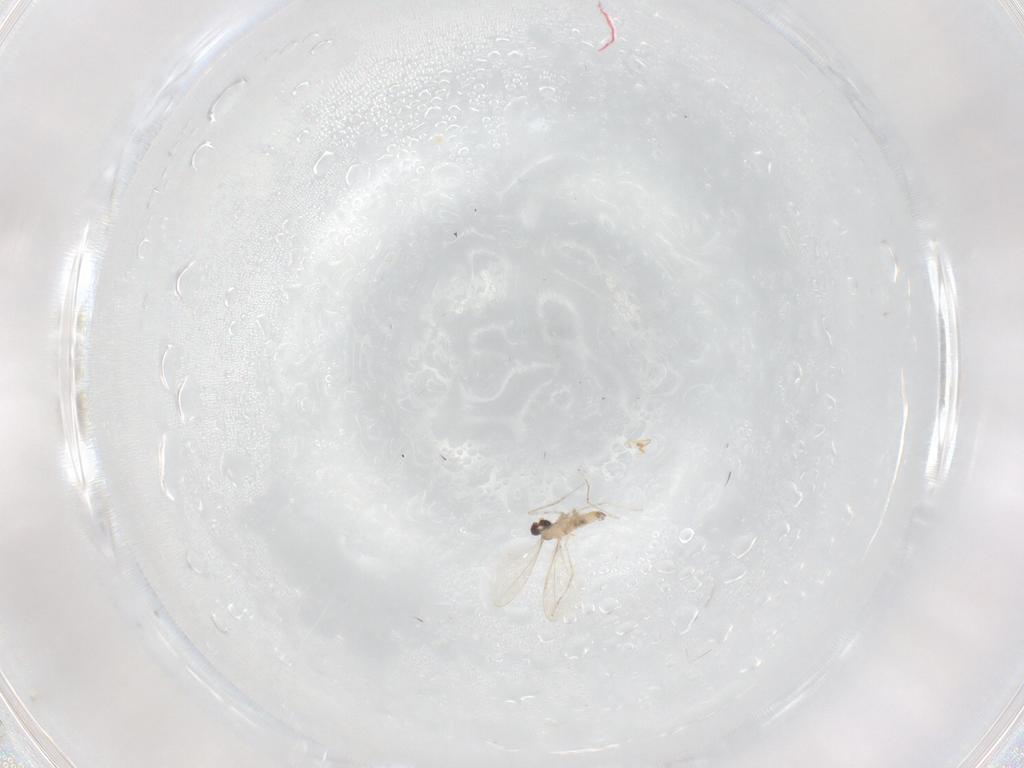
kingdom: Animalia
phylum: Arthropoda
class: Insecta
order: Diptera
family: Cecidomyiidae
